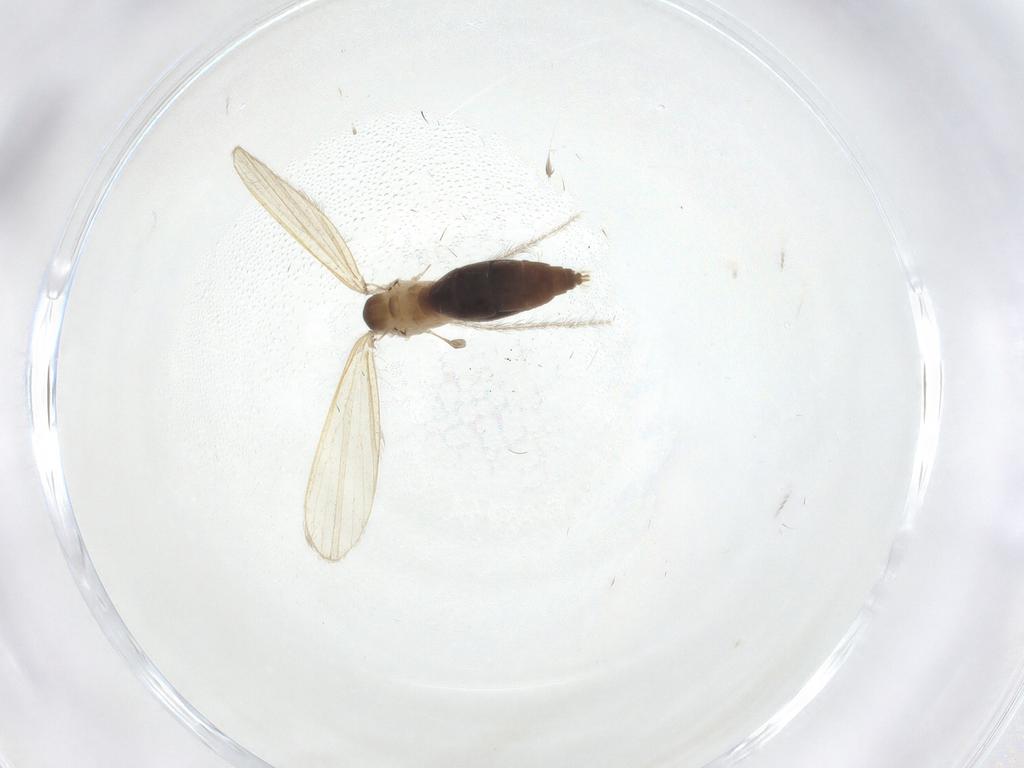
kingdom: Animalia
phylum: Arthropoda
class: Insecta
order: Diptera
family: Psychodidae
